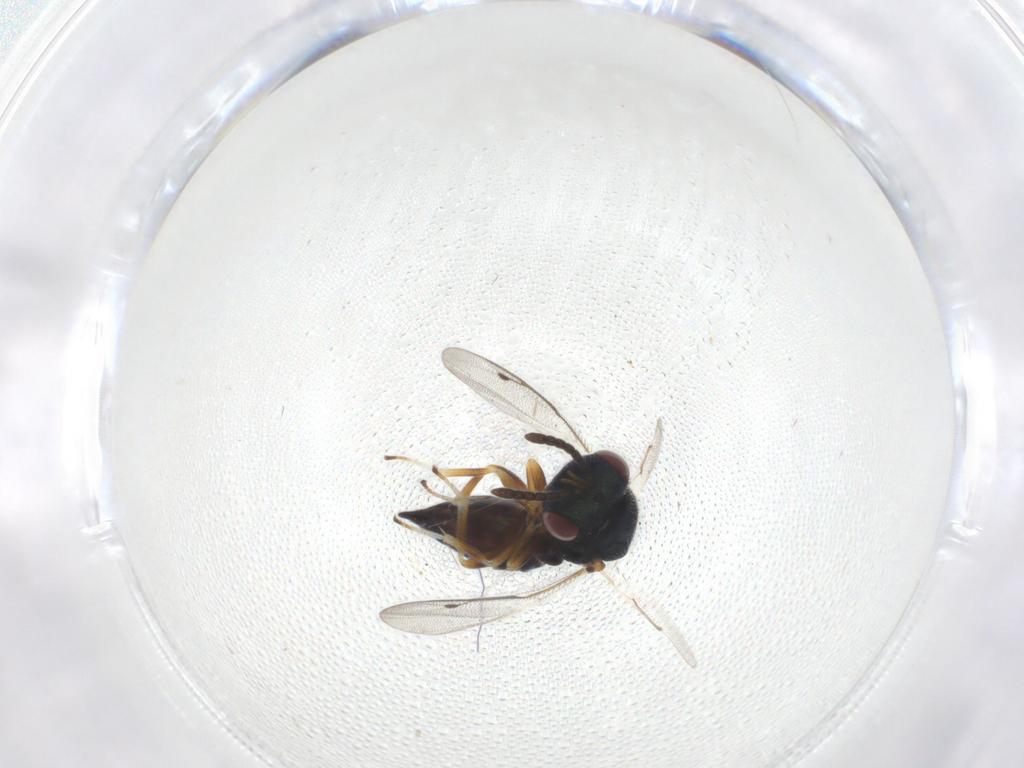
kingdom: Animalia
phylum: Arthropoda
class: Insecta
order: Hymenoptera
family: Pteromalidae
